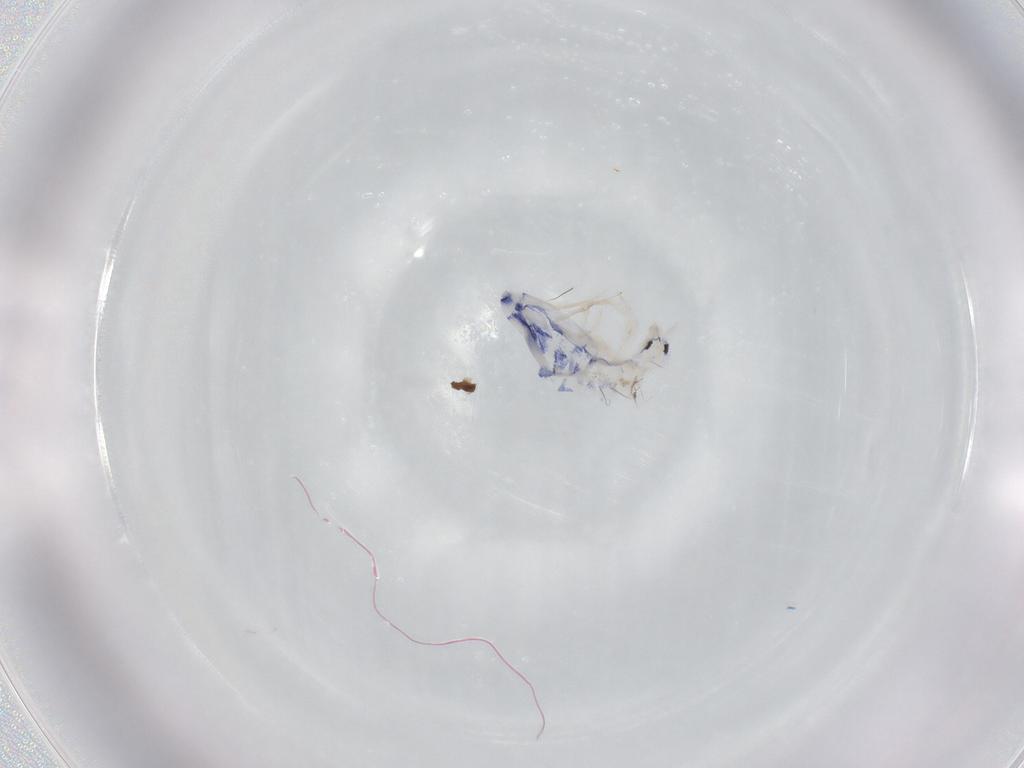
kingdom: Animalia
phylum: Arthropoda
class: Collembola
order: Entomobryomorpha
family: Entomobryidae
